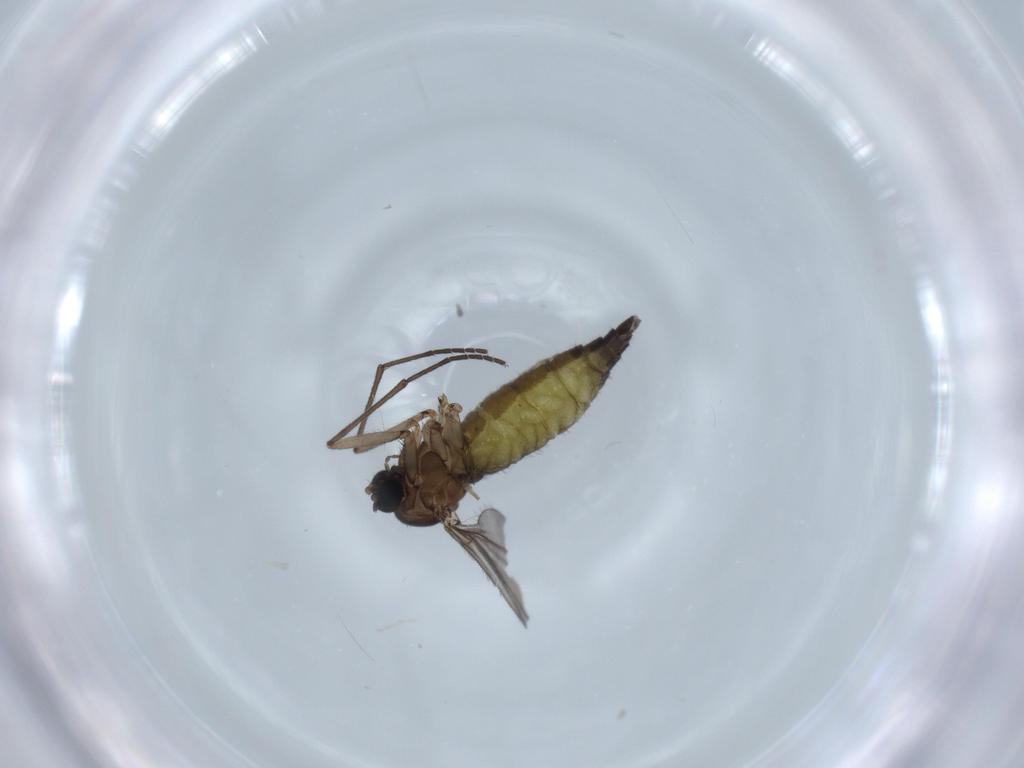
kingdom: Animalia
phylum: Arthropoda
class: Insecta
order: Diptera
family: Sciaridae
